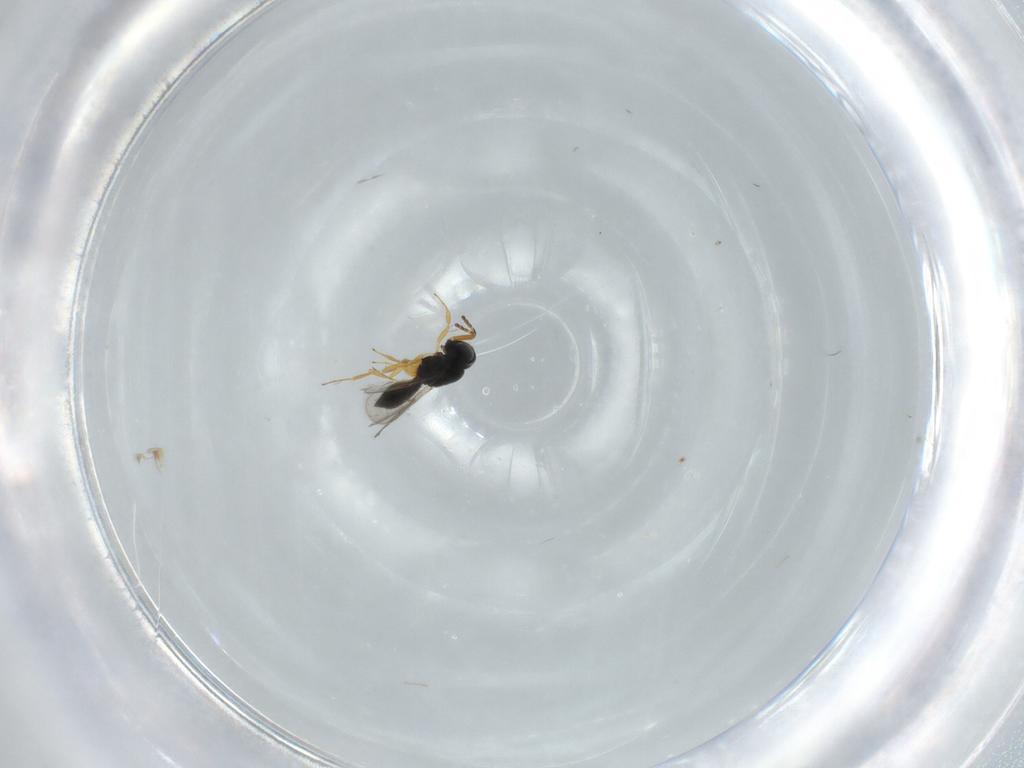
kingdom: Animalia
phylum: Arthropoda
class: Insecta
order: Hymenoptera
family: Scelionidae
